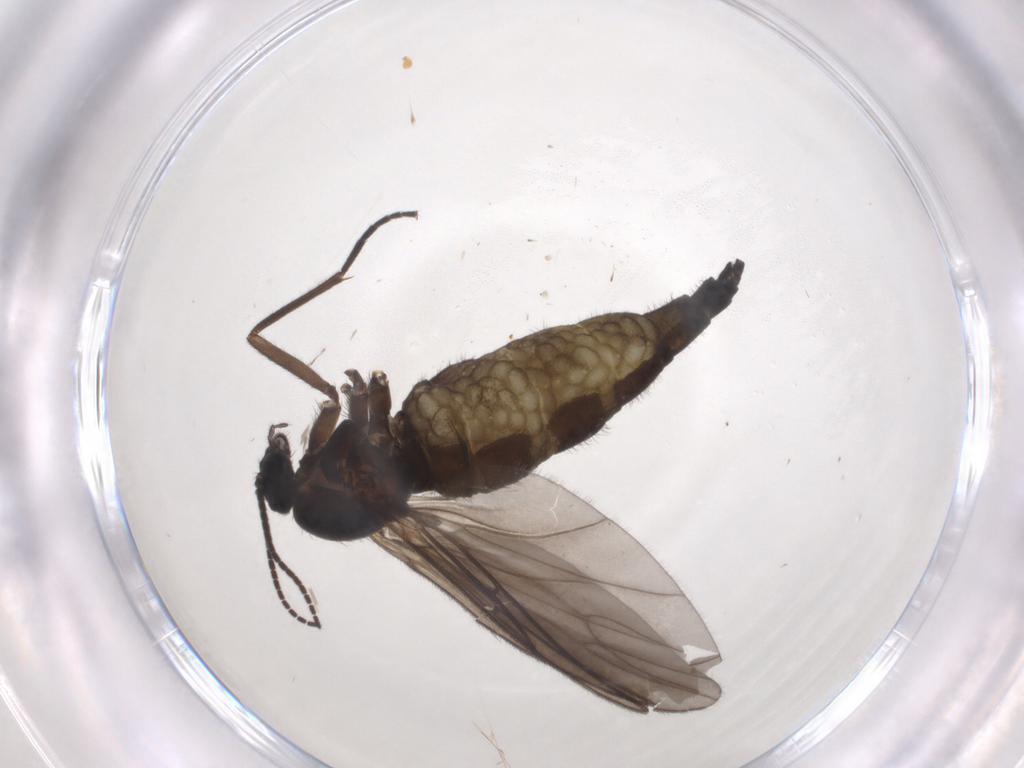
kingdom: Animalia
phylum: Arthropoda
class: Insecta
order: Diptera
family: Sciaridae
